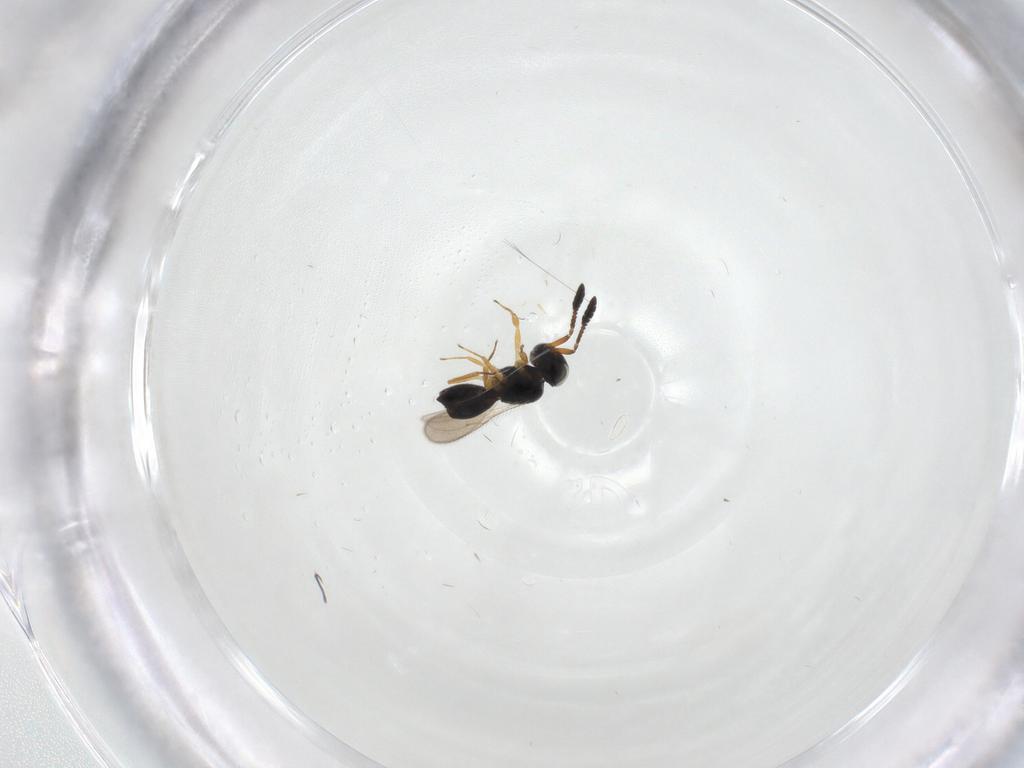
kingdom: Animalia
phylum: Arthropoda
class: Insecta
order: Hymenoptera
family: Scelionidae
